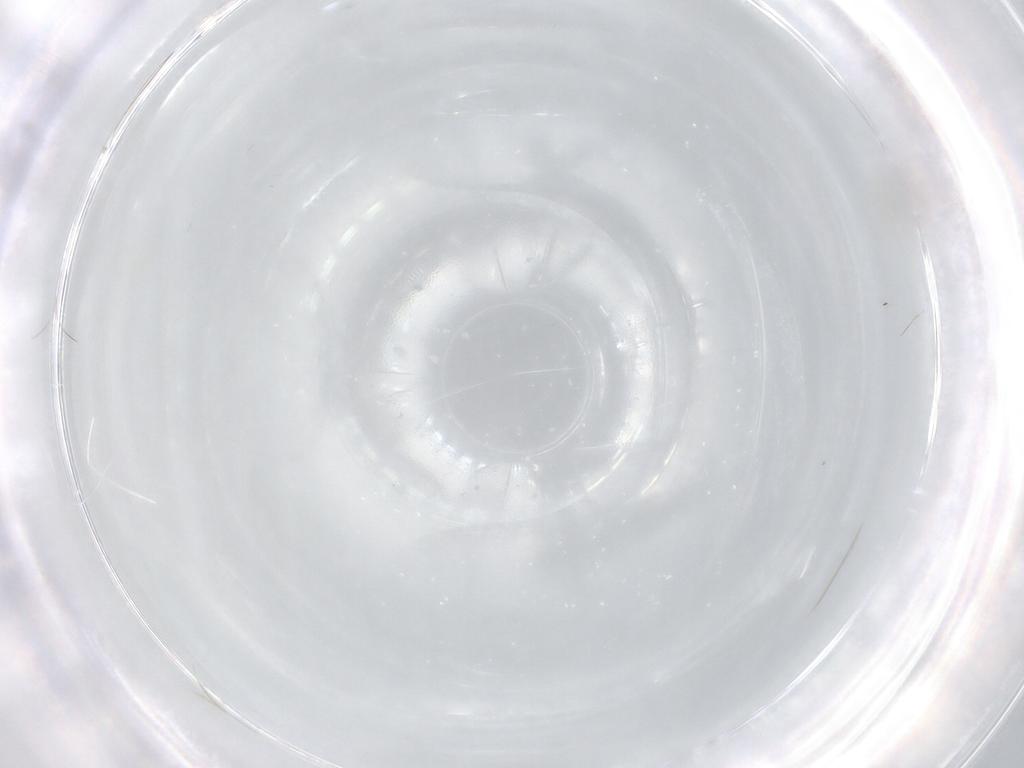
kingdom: Animalia
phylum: Arthropoda
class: Insecta
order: Hymenoptera
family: Mymaridae
